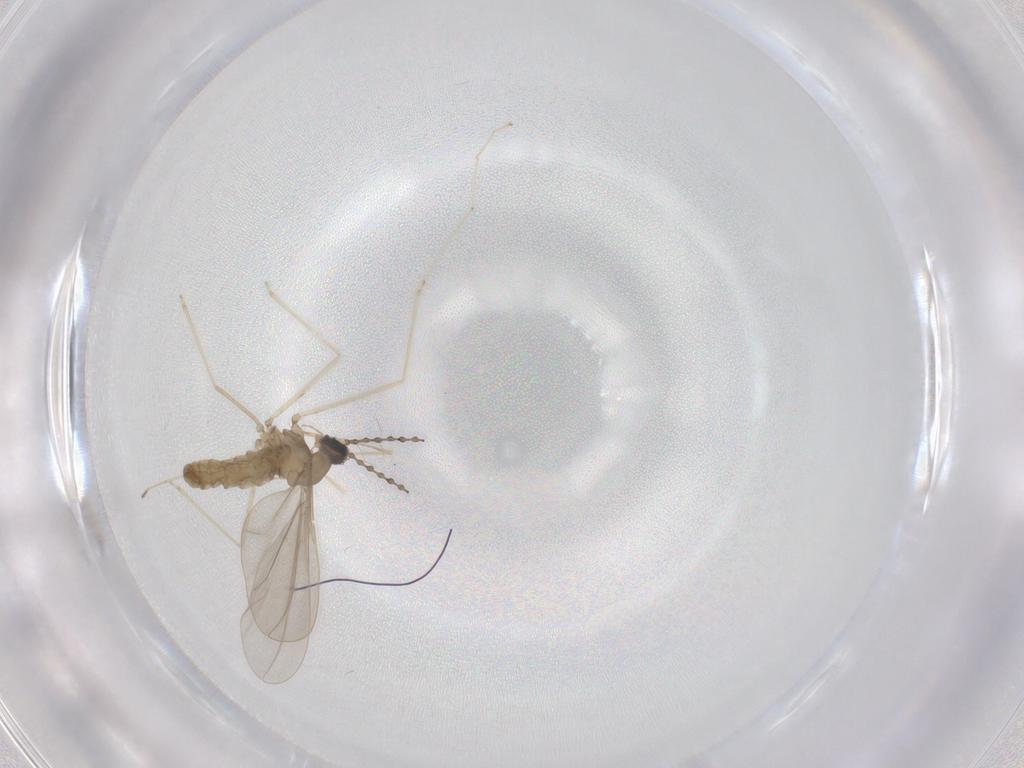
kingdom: Animalia
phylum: Arthropoda
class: Insecta
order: Diptera
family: Cecidomyiidae
